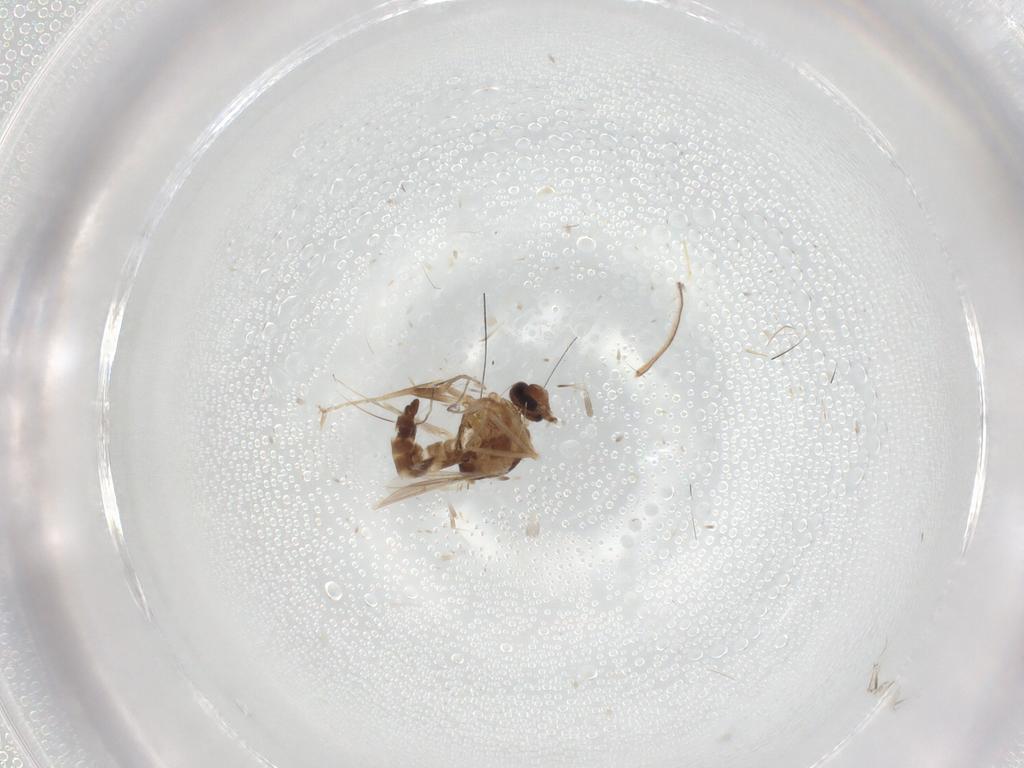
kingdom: Animalia
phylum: Arthropoda
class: Insecta
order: Diptera
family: Ceratopogonidae
